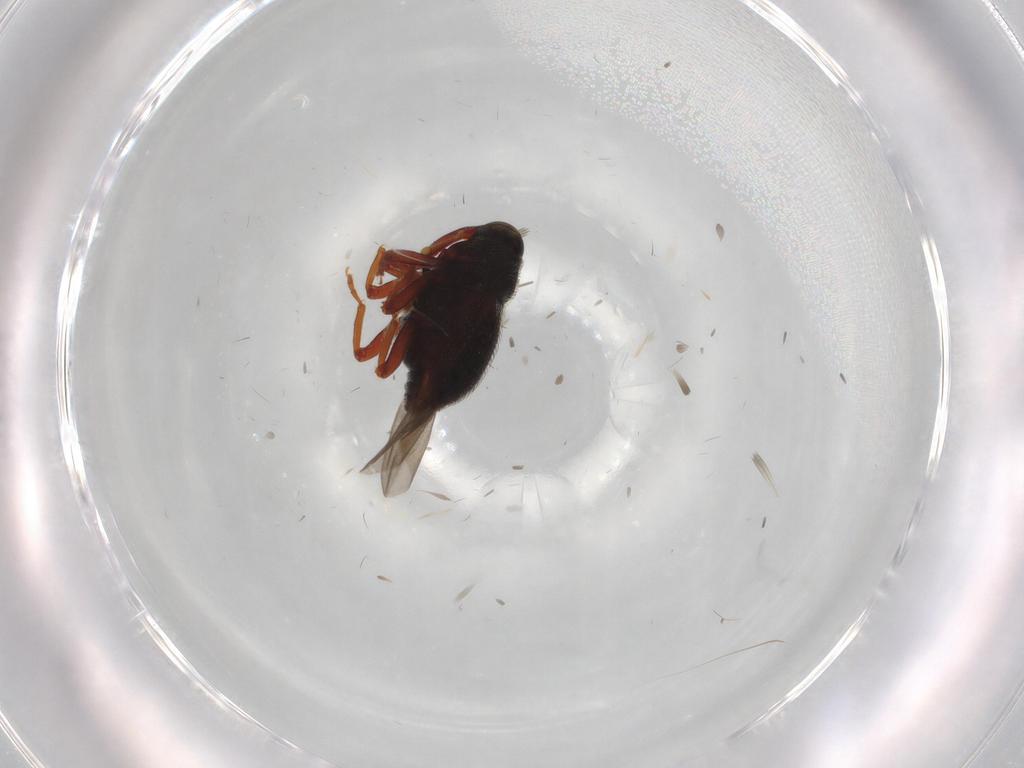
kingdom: Animalia
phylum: Arthropoda
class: Insecta
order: Coleoptera
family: Curculionidae
